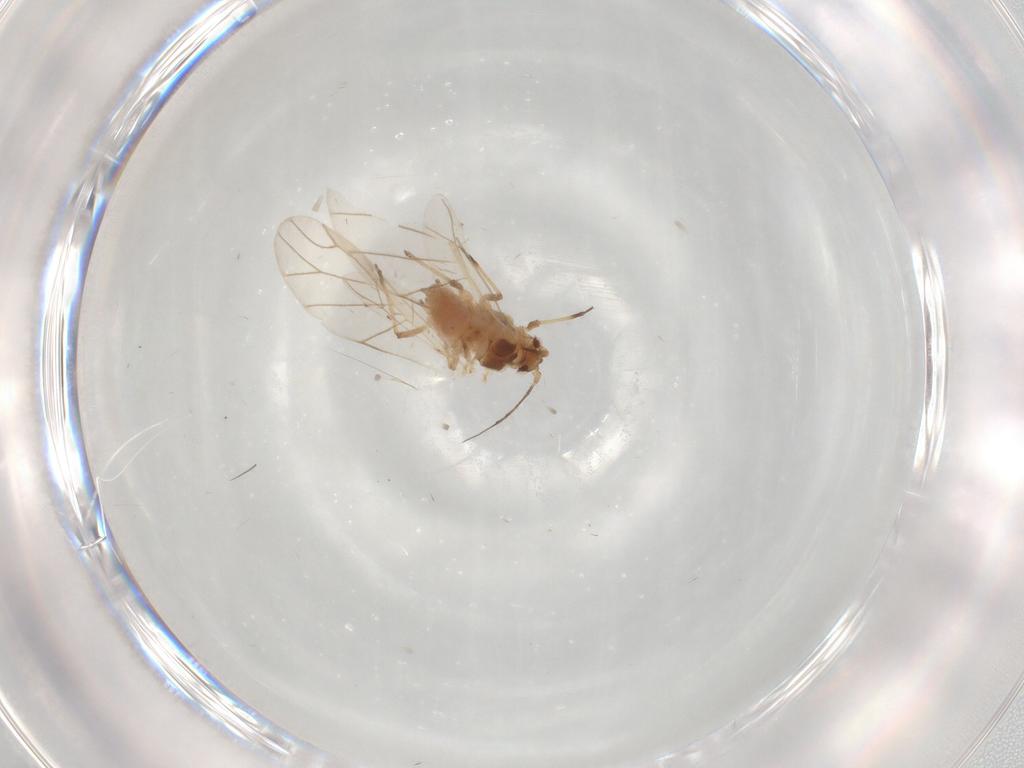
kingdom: Animalia
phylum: Arthropoda
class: Insecta
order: Hemiptera
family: Aphididae
